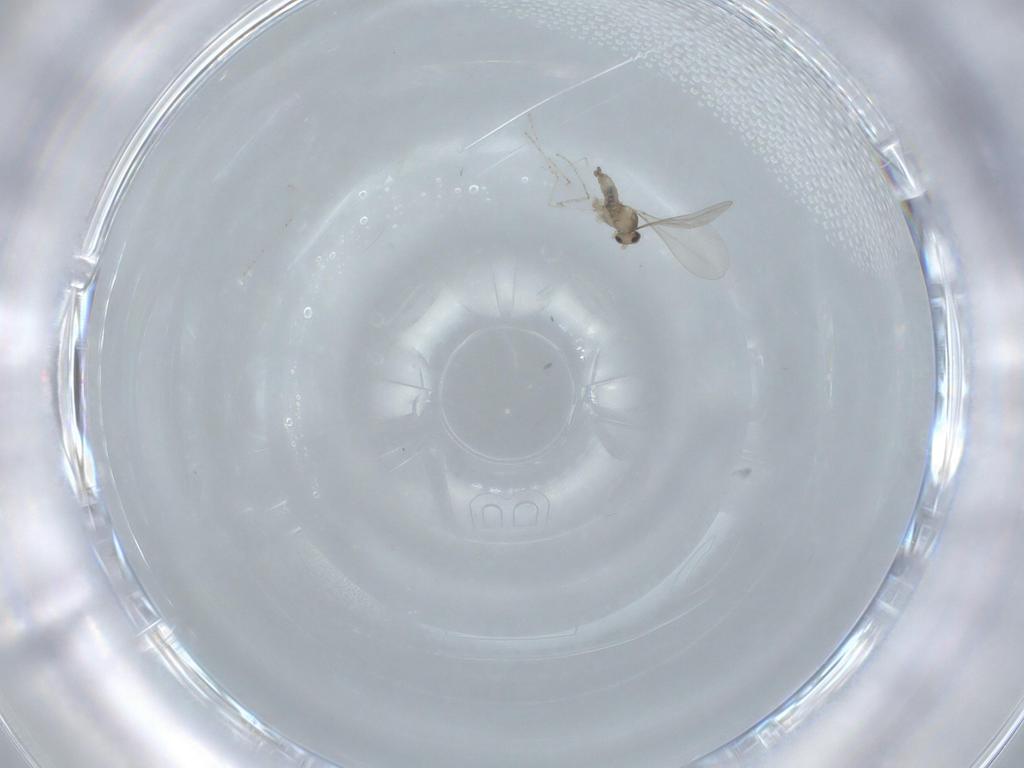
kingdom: Animalia
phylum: Arthropoda
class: Insecta
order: Diptera
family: Cecidomyiidae
